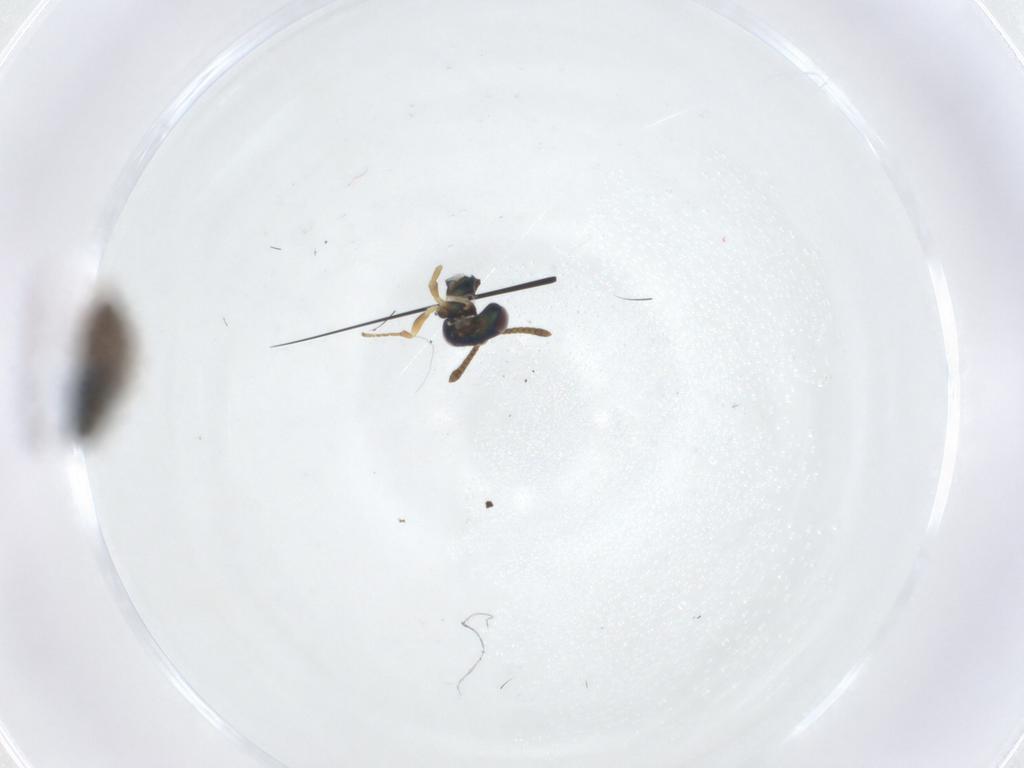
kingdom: Animalia
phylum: Arthropoda
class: Insecta
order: Hymenoptera
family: Pteromalidae
